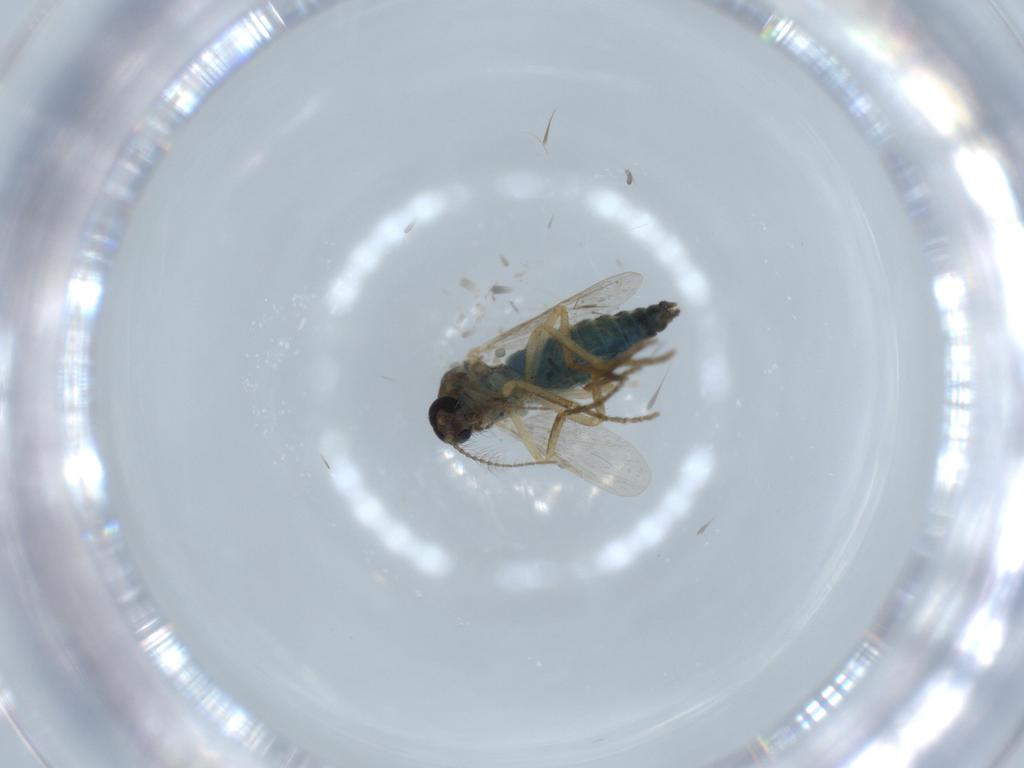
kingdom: Animalia
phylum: Arthropoda
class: Insecta
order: Diptera
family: Ceratopogonidae
